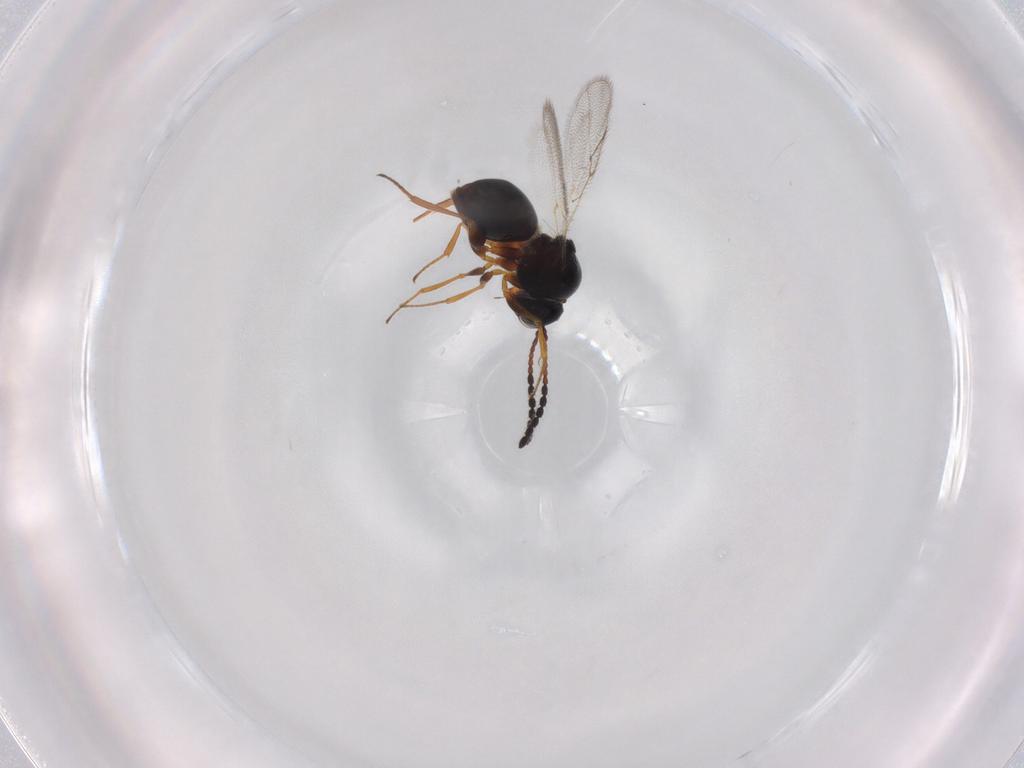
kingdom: Animalia
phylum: Arthropoda
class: Insecta
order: Hymenoptera
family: Figitidae
